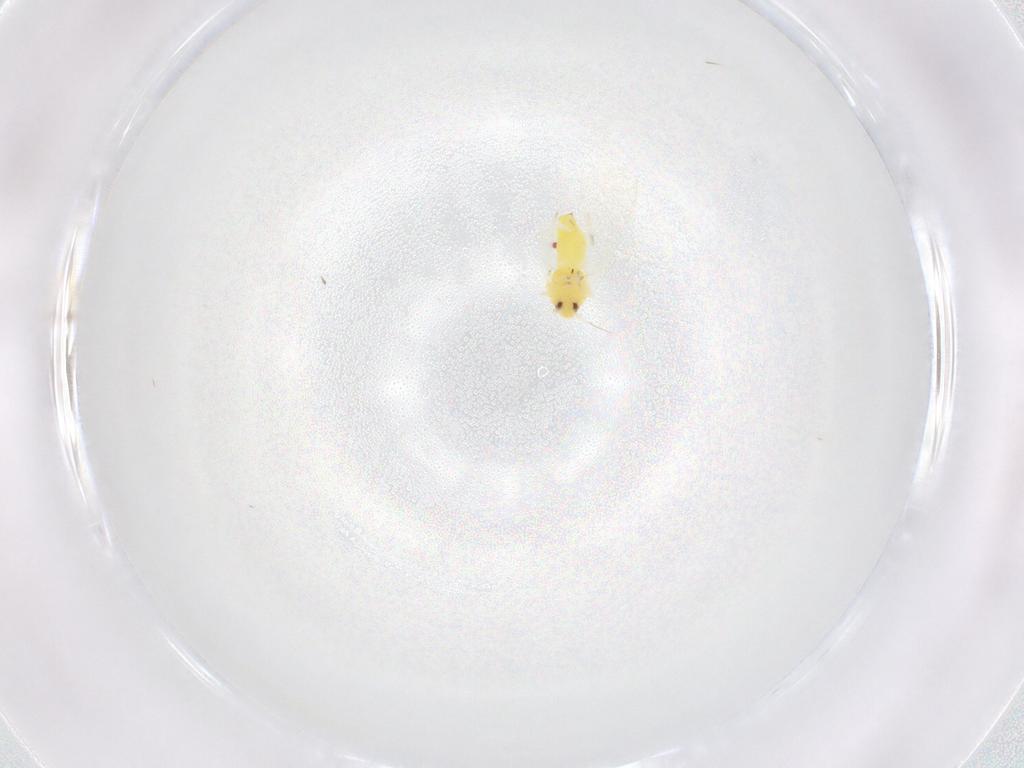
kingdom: Animalia
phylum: Arthropoda
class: Insecta
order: Hemiptera
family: Aleyrodidae
